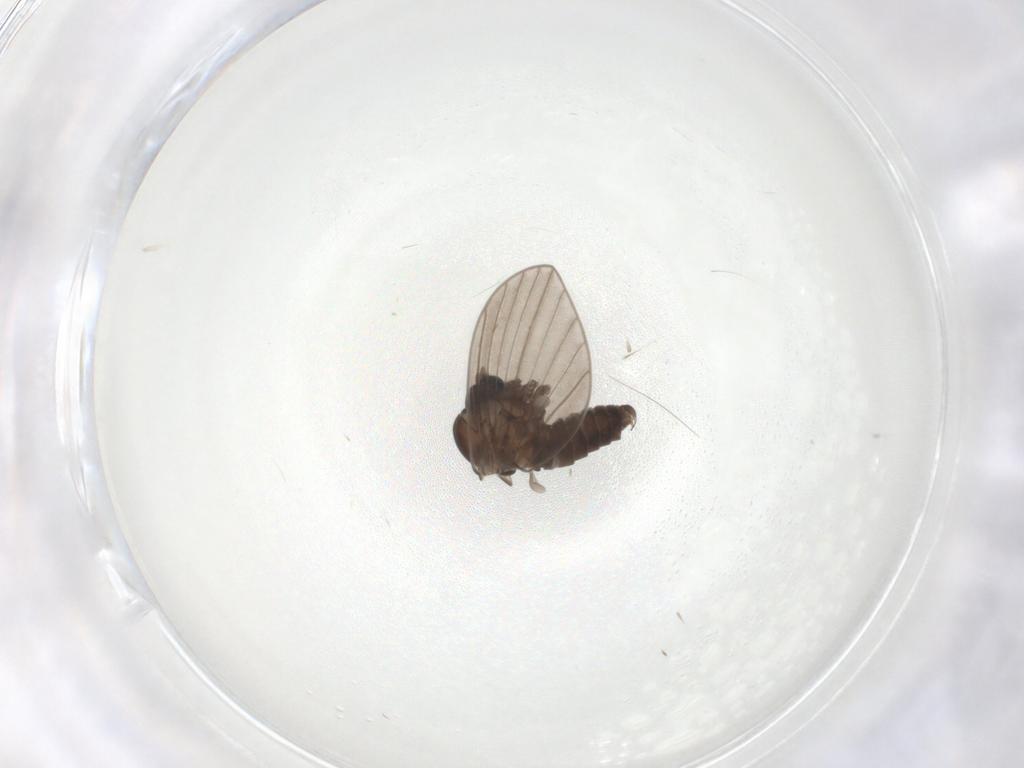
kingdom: Animalia
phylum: Arthropoda
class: Insecta
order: Diptera
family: Psychodidae
